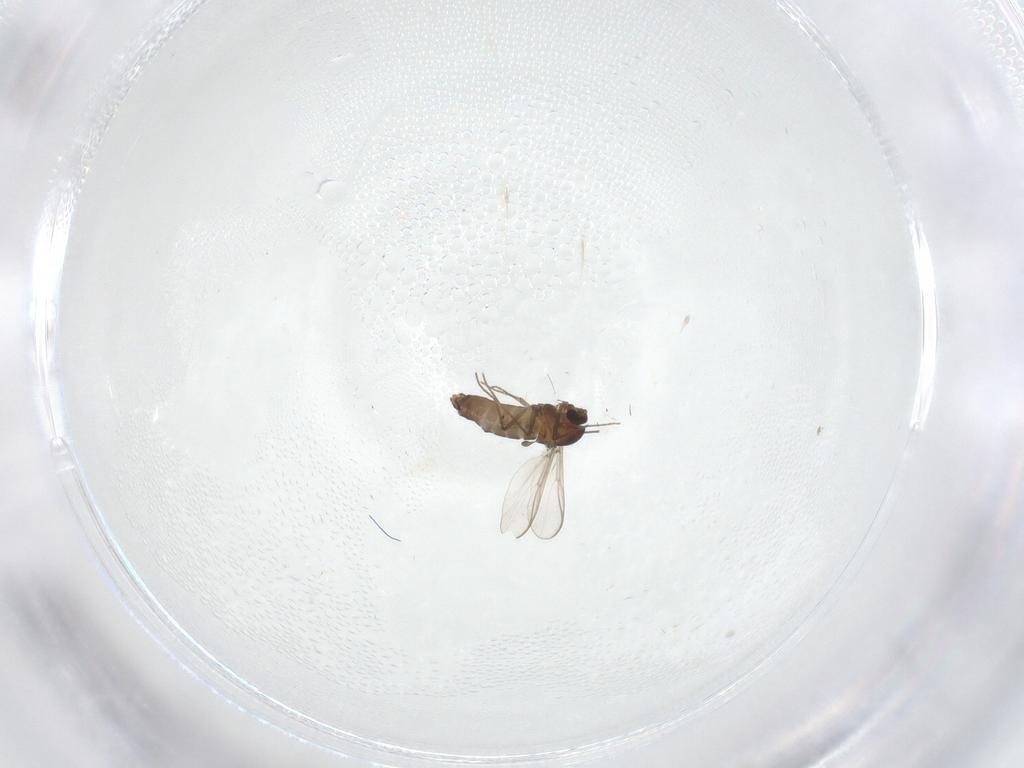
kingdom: Animalia
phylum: Arthropoda
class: Insecta
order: Diptera
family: Chironomidae
